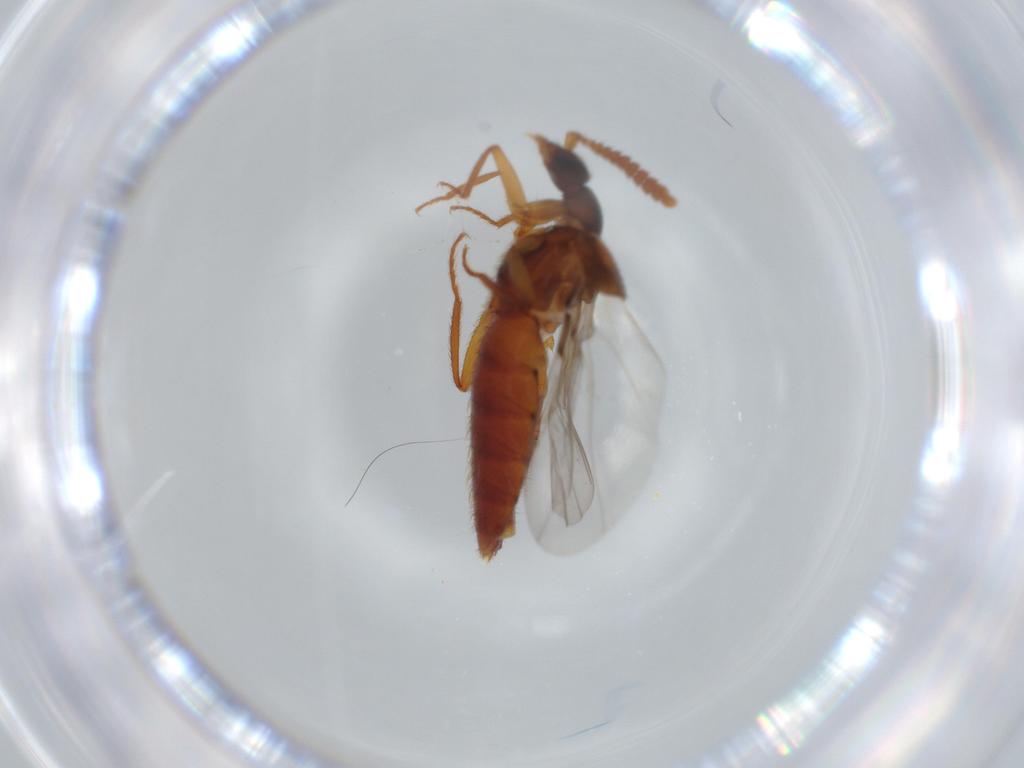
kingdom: Animalia
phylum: Arthropoda
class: Insecta
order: Coleoptera
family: Staphylinidae
